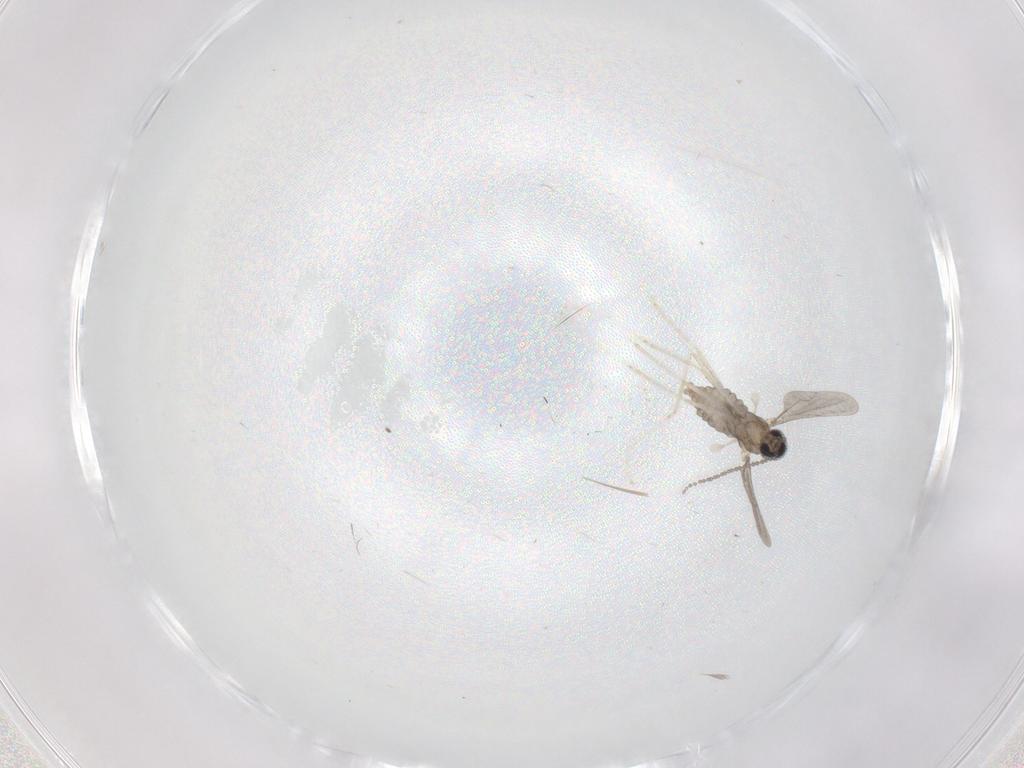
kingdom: Animalia
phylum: Arthropoda
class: Insecta
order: Diptera
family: Cecidomyiidae
